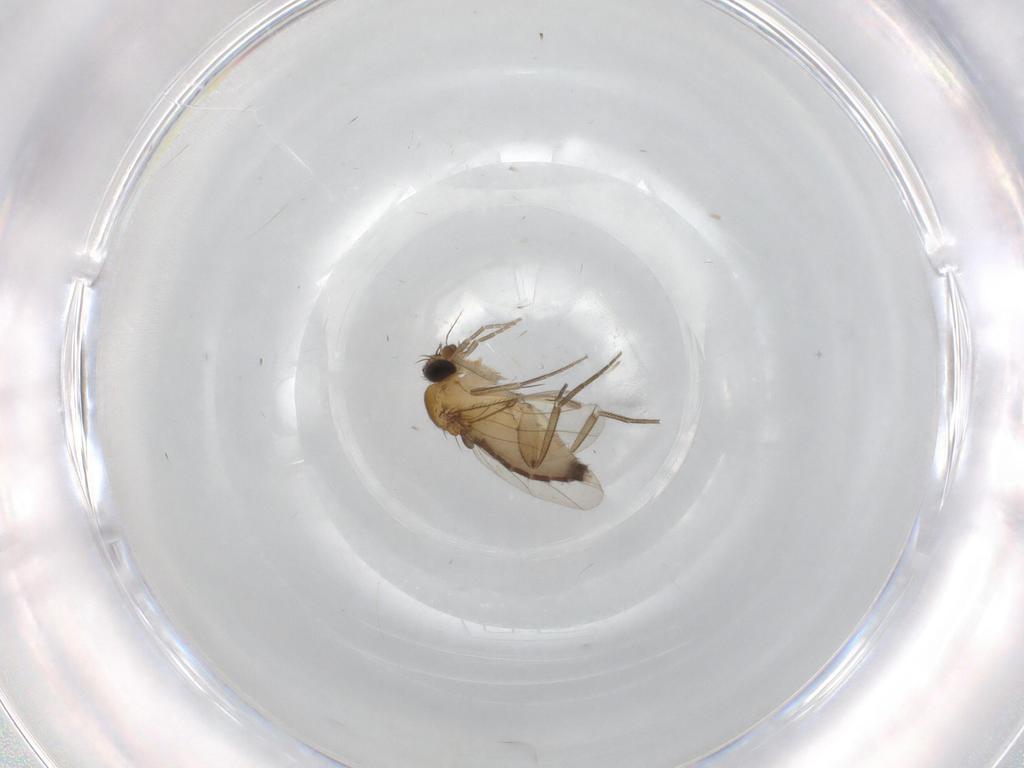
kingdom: Animalia
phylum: Arthropoda
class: Insecta
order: Diptera
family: Phoridae
